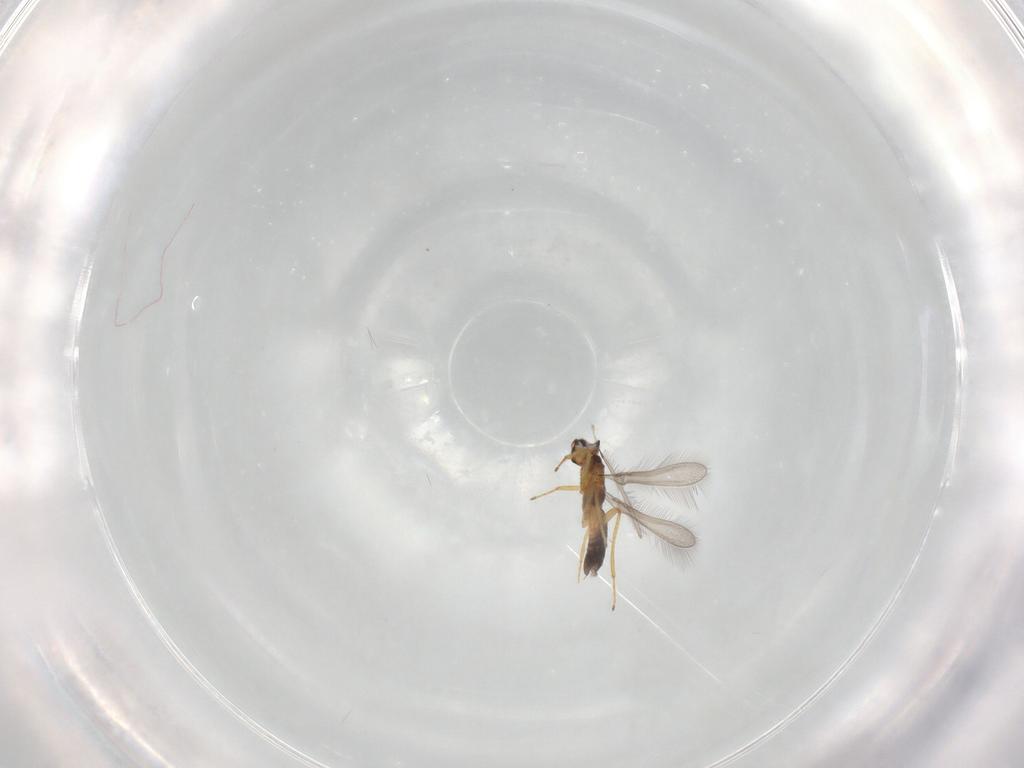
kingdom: Animalia
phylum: Arthropoda
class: Insecta
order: Hymenoptera
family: Mymaridae
